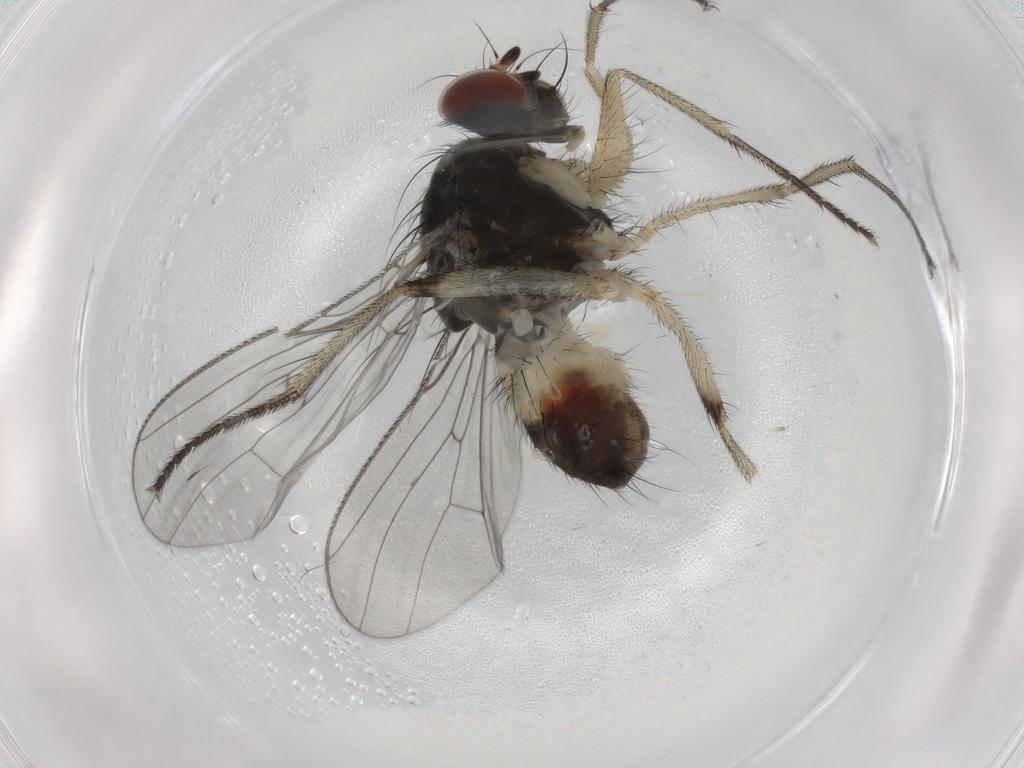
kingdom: Animalia
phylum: Arthropoda
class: Insecta
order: Diptera
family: Muscidae
